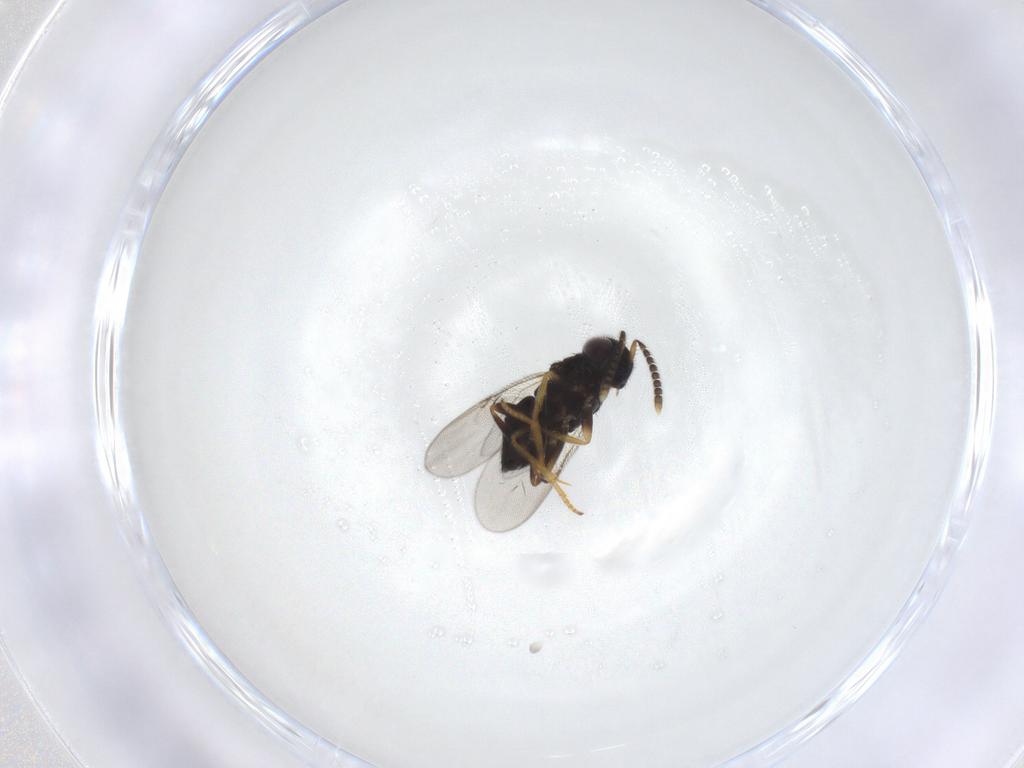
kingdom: Animalia
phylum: Arthropoda
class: Insecta
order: Hymenoptera
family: Encyrtidae
